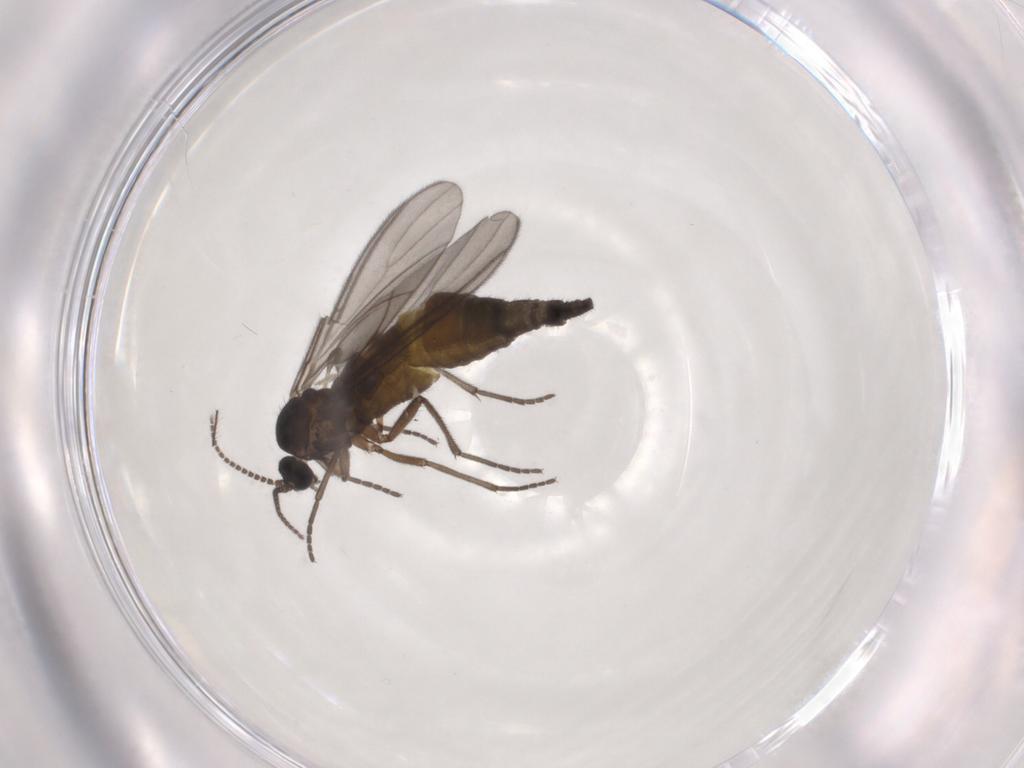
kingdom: Animalia
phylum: Arthropoda
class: Insecta
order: Diptera
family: Sciaridae
